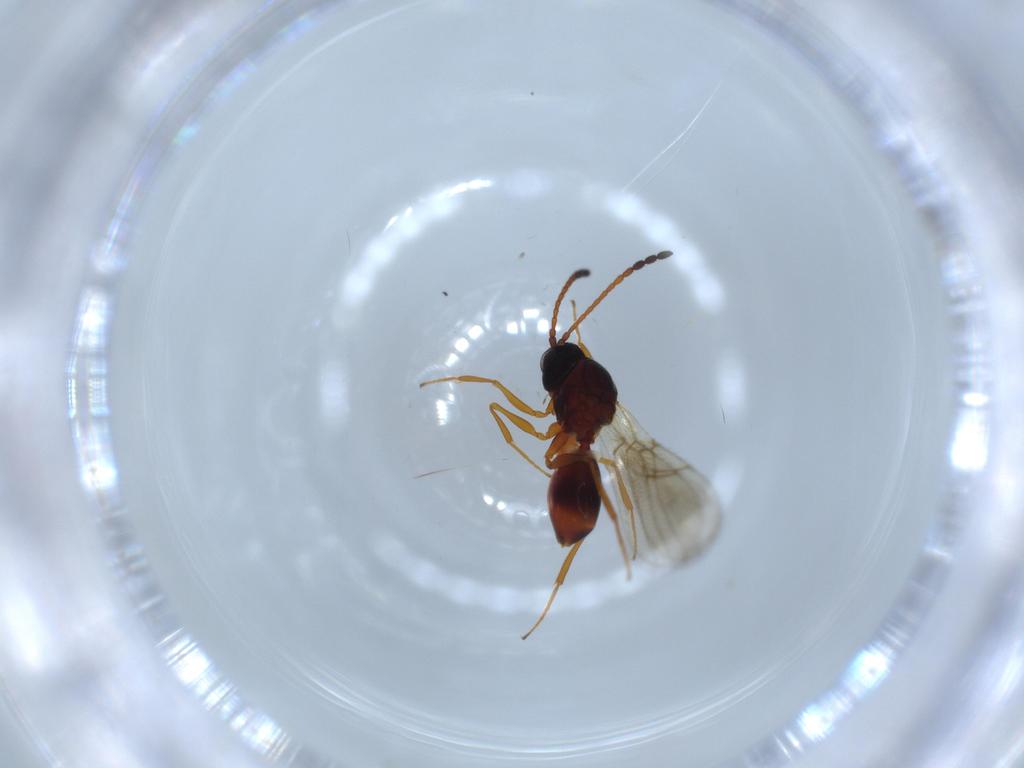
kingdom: Animalia
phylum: Arthropoda
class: Insecta
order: Hymenoptera
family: Figitidae
